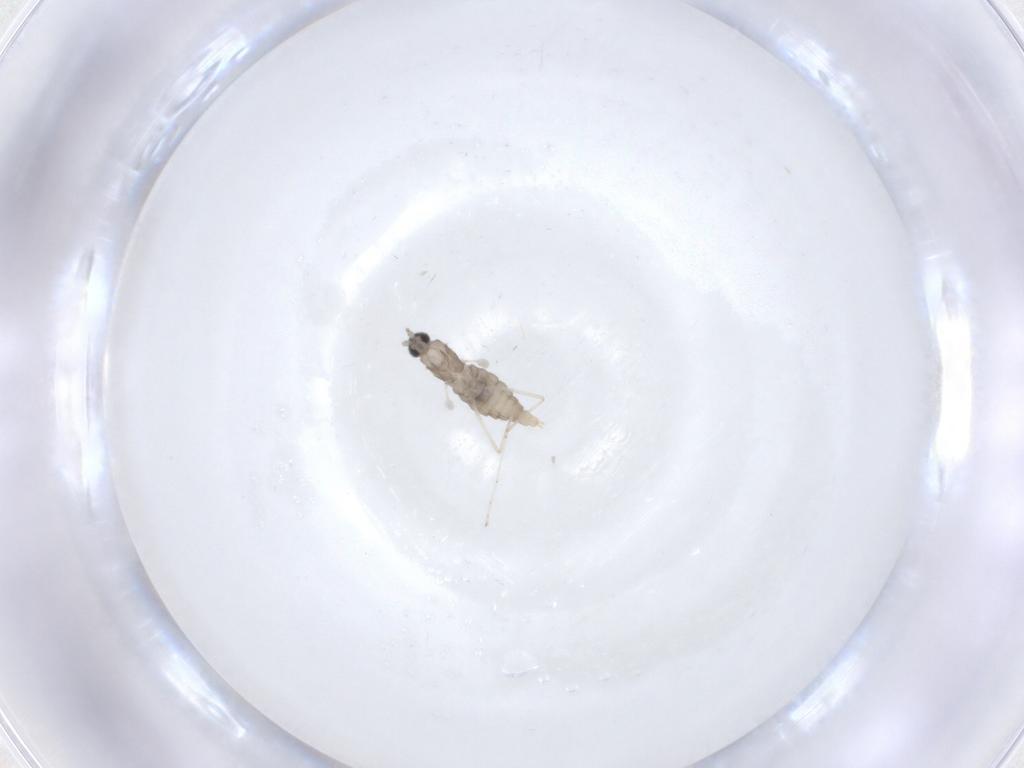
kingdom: Animalia
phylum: Arthropoda
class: Insecta
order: Diptera
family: Cecidomyiidae
